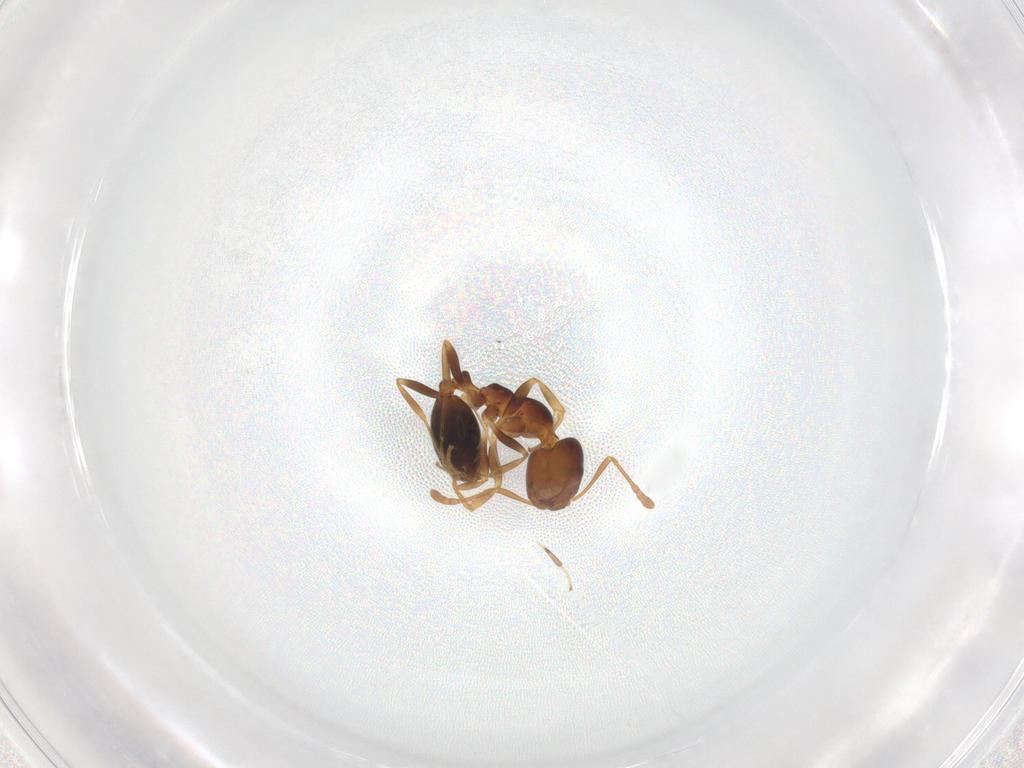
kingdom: Animalia
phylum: Arthropoda
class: Insecta
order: Hymenoptera
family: Formicidae
